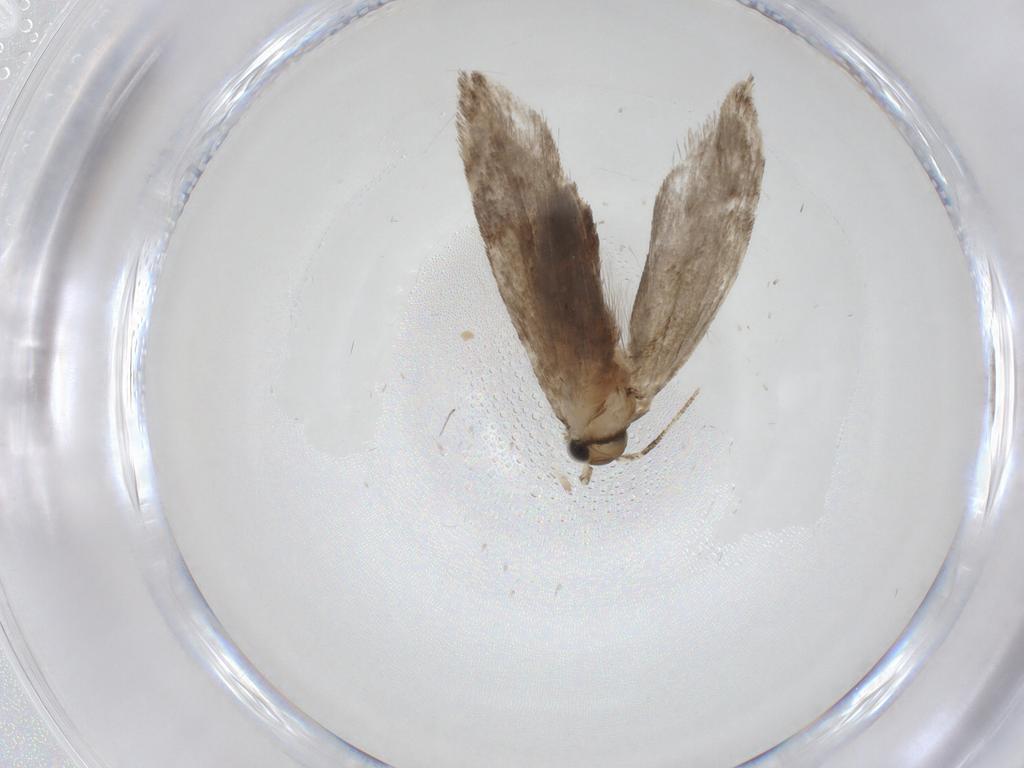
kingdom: Animalia
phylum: Arthropoda
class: Insecta
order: Lepidoptera
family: Tineidae
